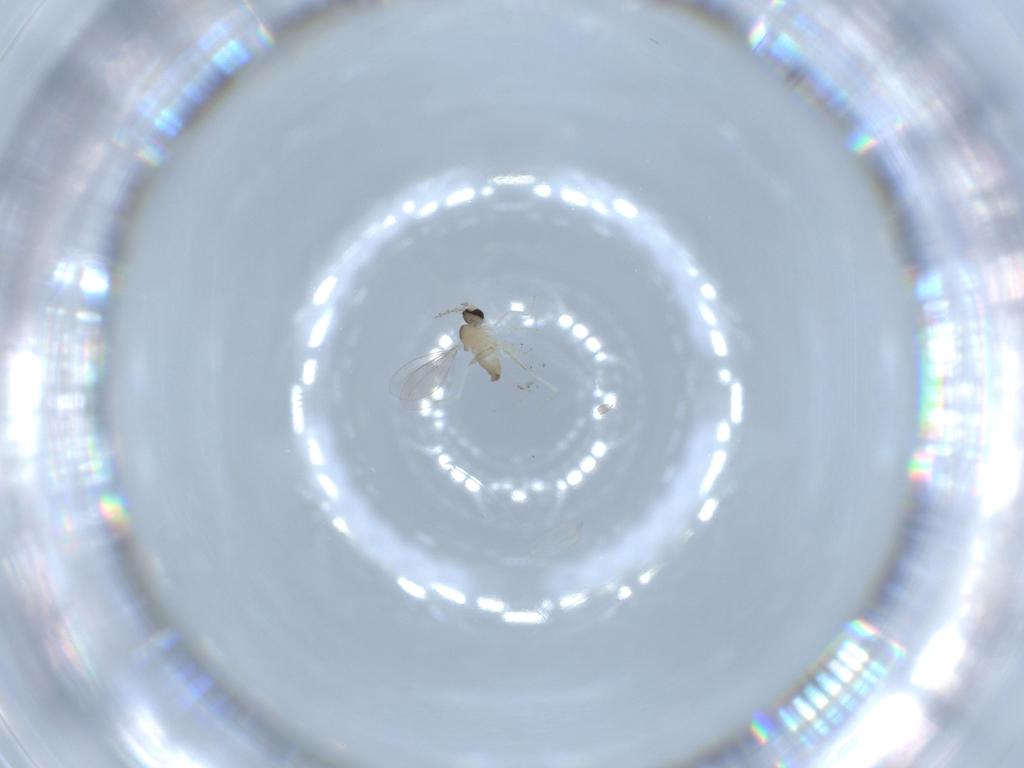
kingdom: Animalia
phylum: Arthropoda
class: Insecta
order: Diptera
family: Cecidomyiidae
